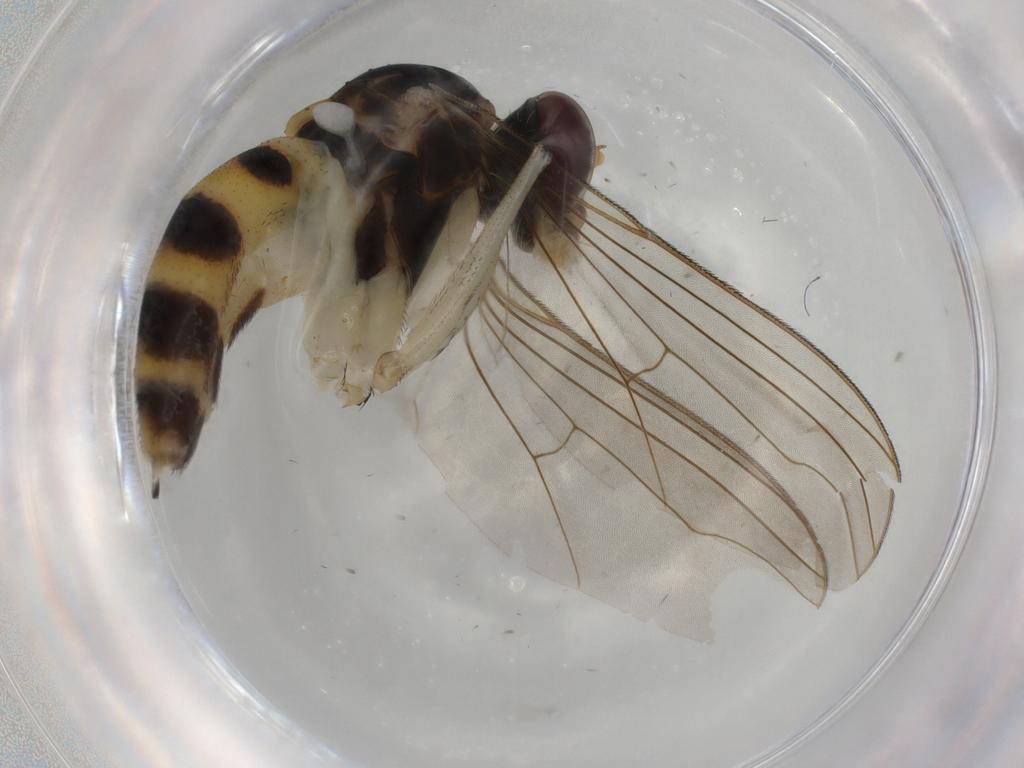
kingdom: Animalia
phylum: Arthropoda
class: Insecta
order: Diptera
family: Dolichopodidae
